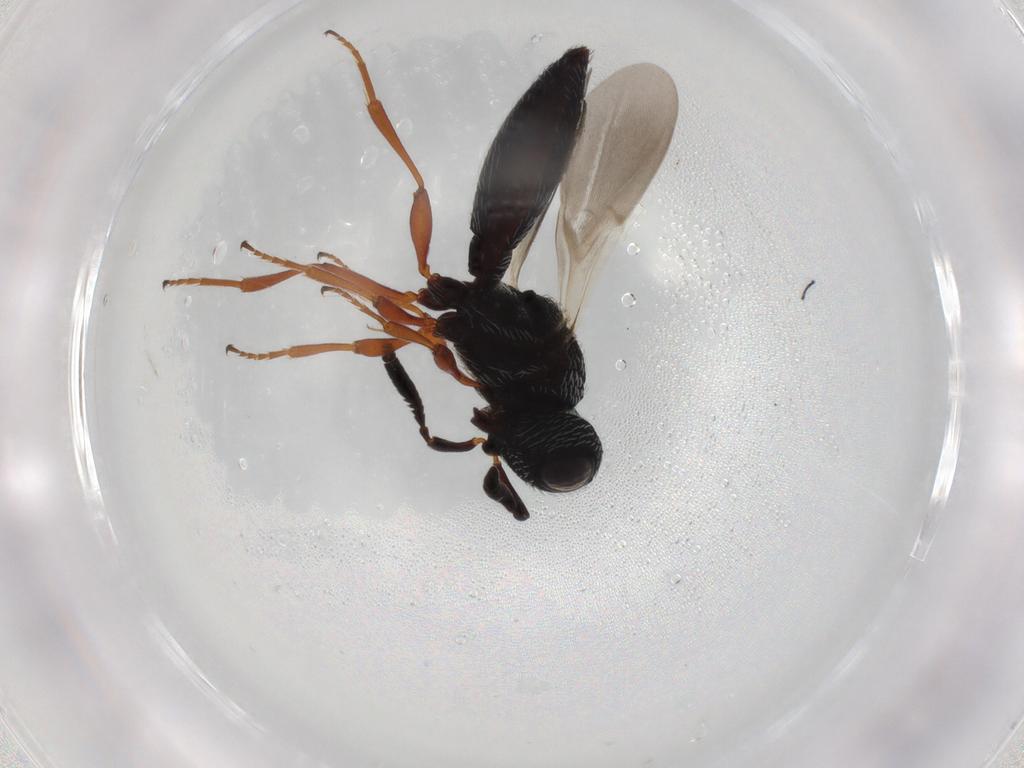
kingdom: Animalia
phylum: Arthropoda
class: Insecta
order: Hymenoptera
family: Scelionidae
